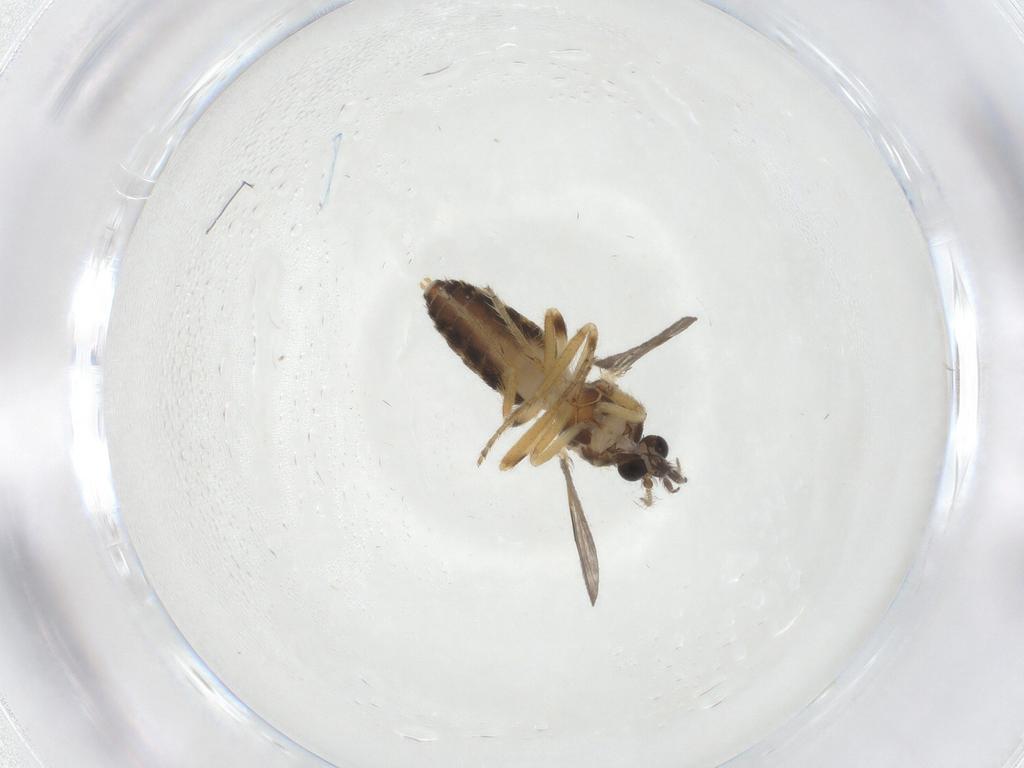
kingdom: Animalia
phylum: Arthropoda
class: Insecta
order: Diptera
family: Ceratopogonidae
